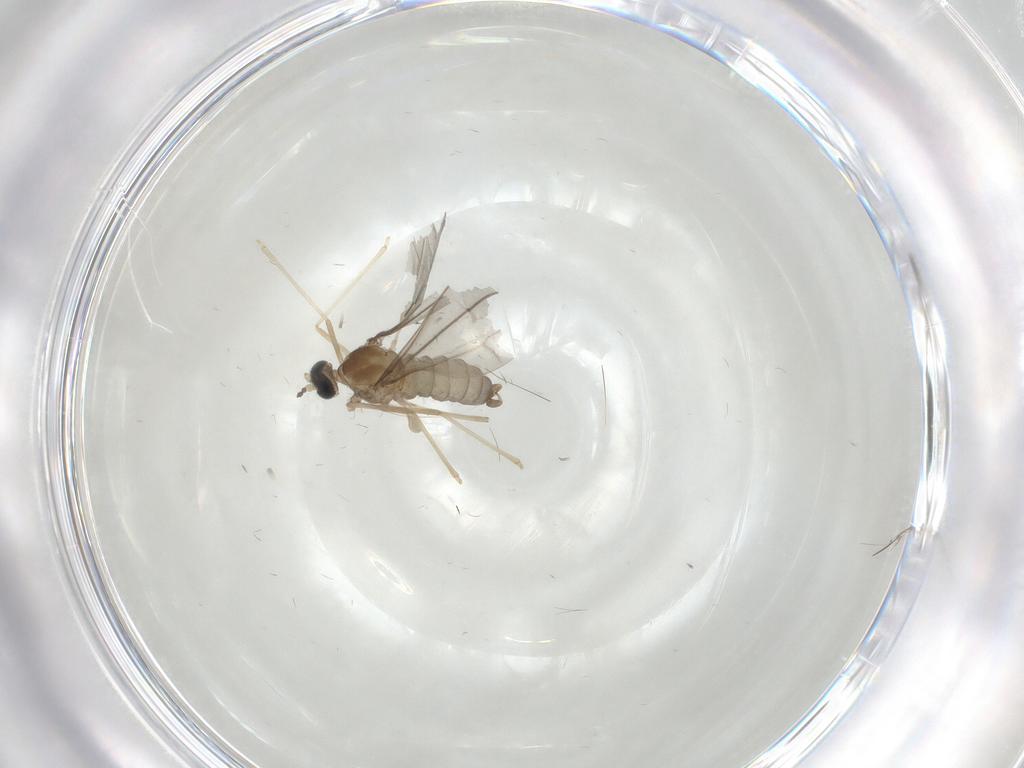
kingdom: Animalia
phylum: Arthropoda
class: Insecta
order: Diptera
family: Cecidomyiidae
